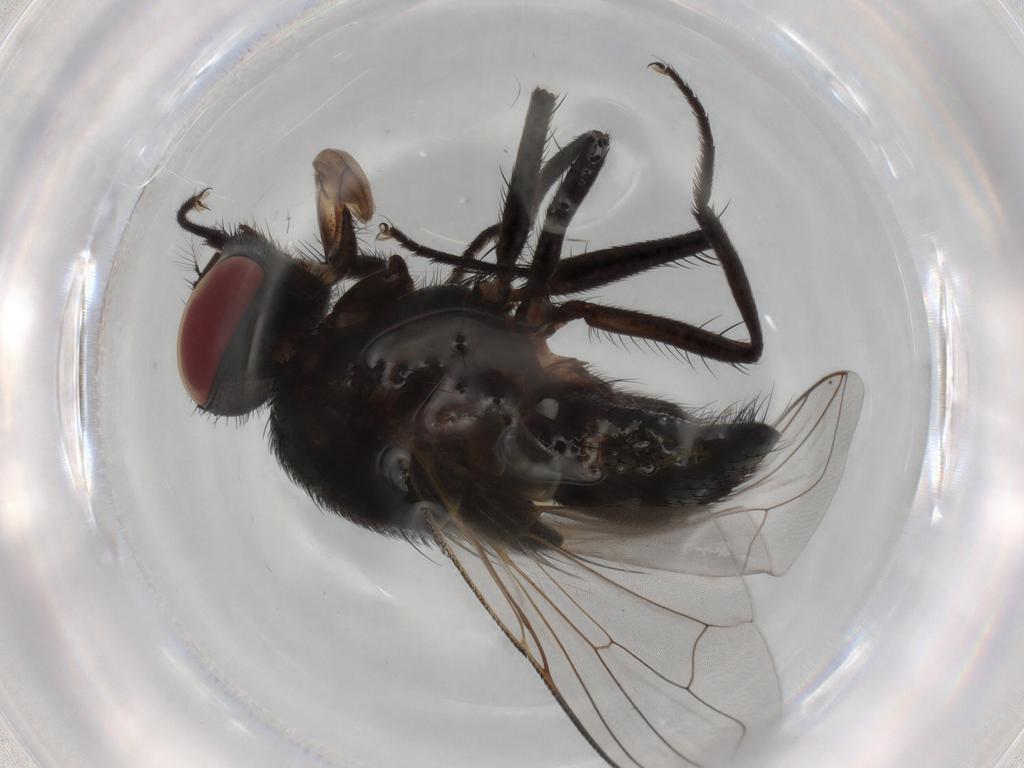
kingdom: Animalia
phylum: Arthropoda
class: Insecta
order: Diptera
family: Muscidae
